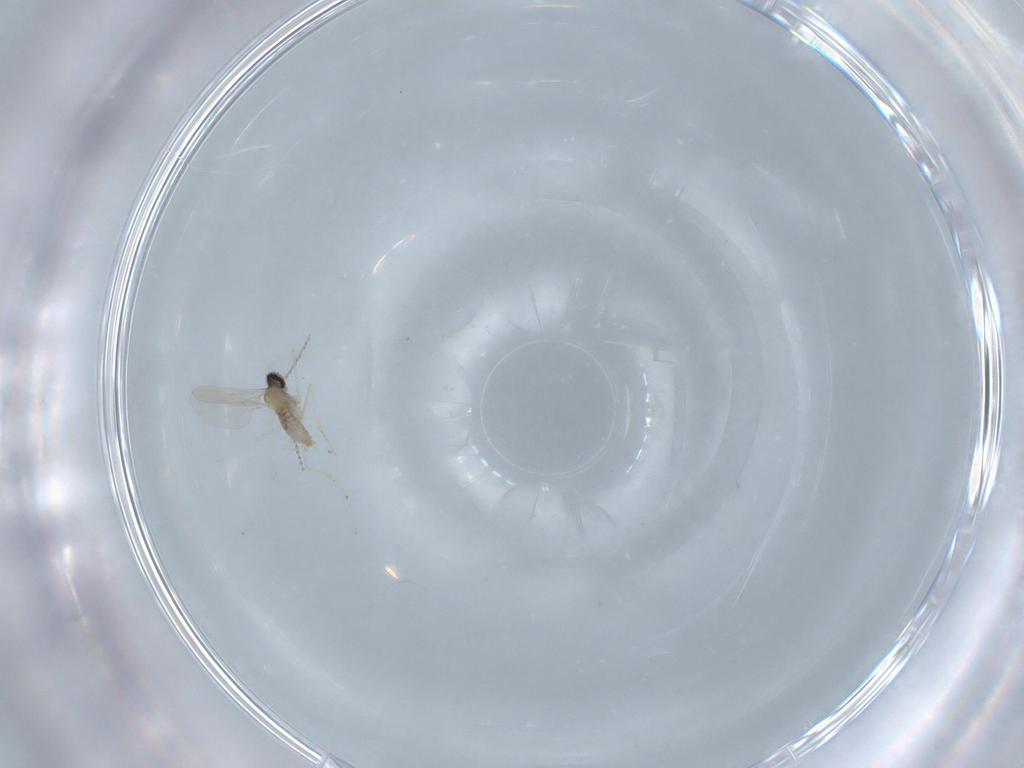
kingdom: Animalia
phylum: Arthropoda
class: Insecta
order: Diptera
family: Cecidomyiidae
